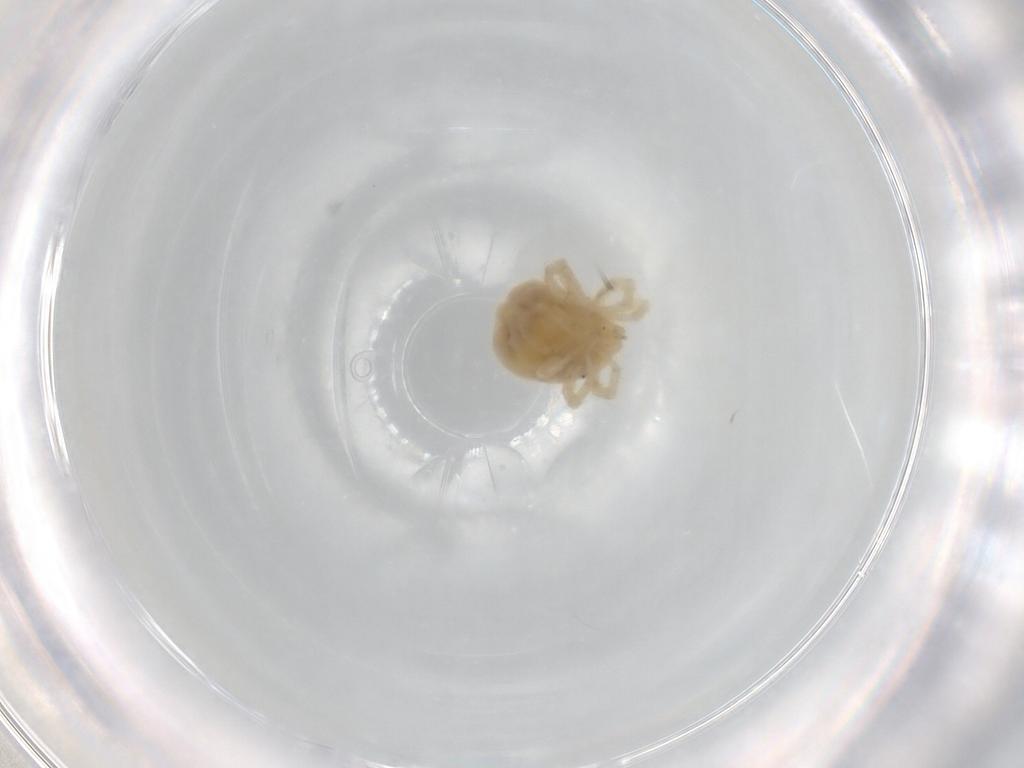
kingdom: Animalia
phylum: Arthropoda
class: Arachnida
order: Trombidiformes
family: Anystidae
